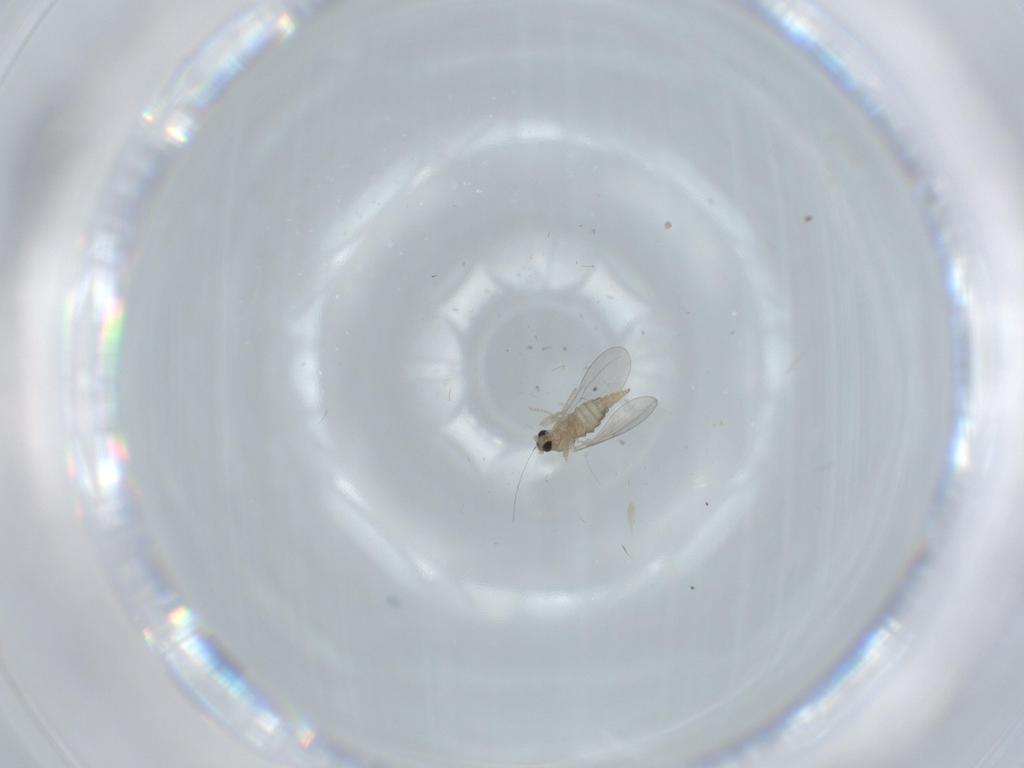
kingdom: Animalia
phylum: Arthropoda
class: Insecta
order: Diptera
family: Cecidomyiidae
